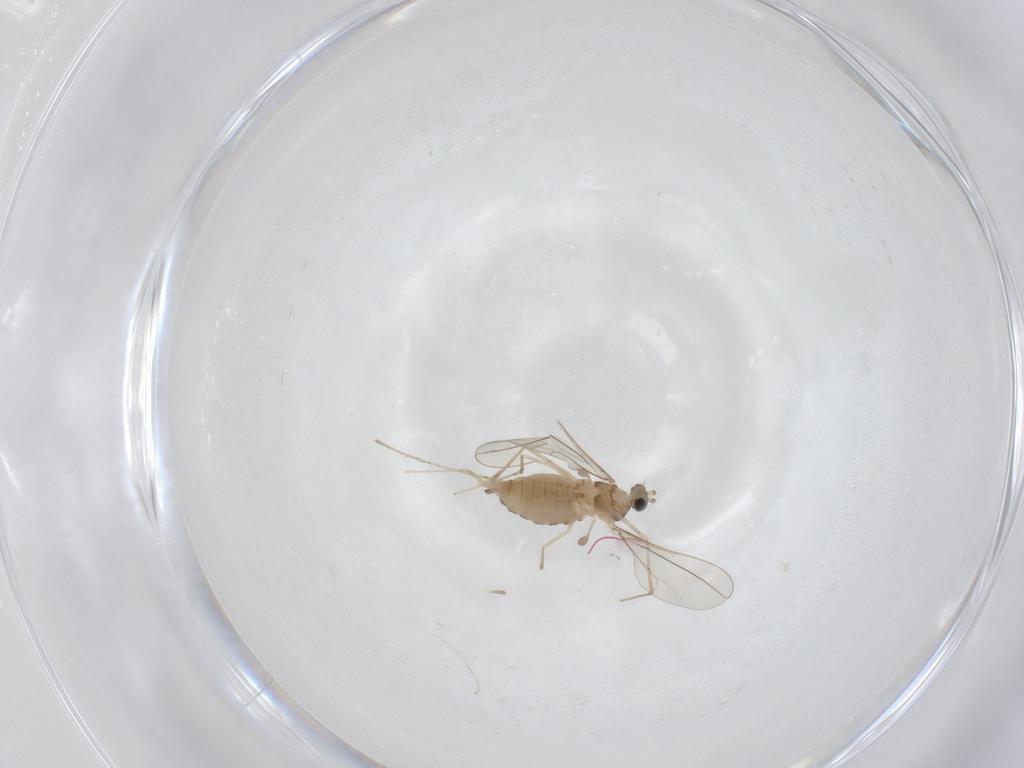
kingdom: Animalia
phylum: Arthropoda
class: Insecta
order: Diptera
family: Cecidomyiidae
